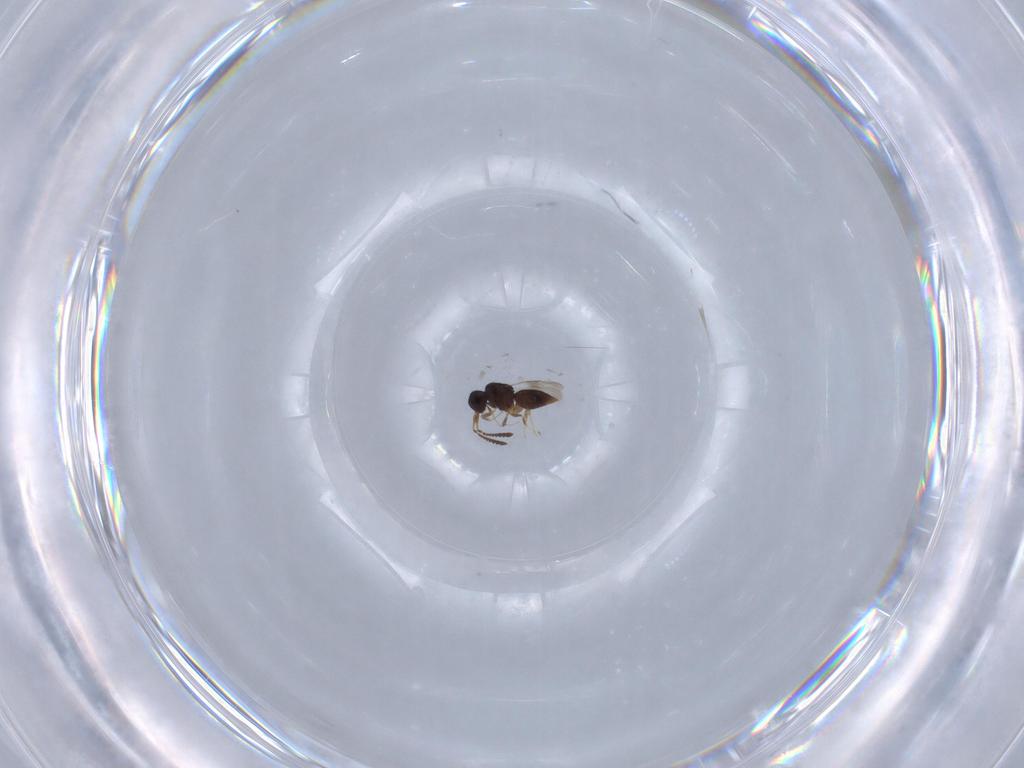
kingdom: Animalia
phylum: Arthropoda
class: Insecta
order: Hymenoptera
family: Ceraphronidae
